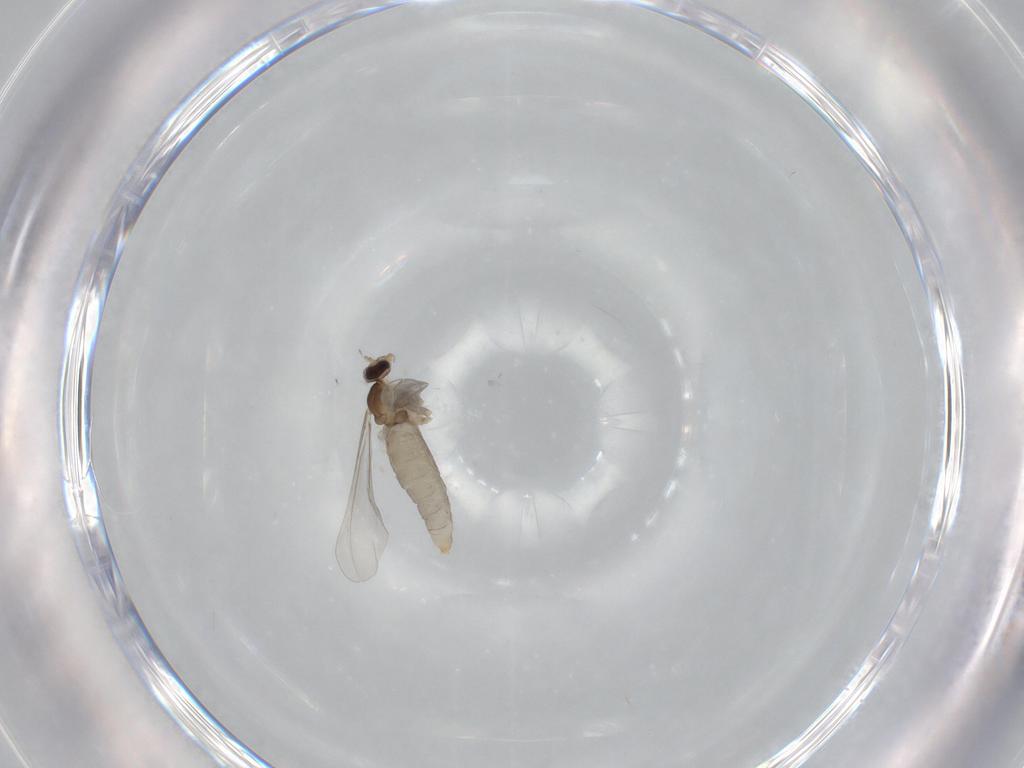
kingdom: Animalia
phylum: Arthropoda
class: Insecta
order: Diptera
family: Cecidomyiidae
